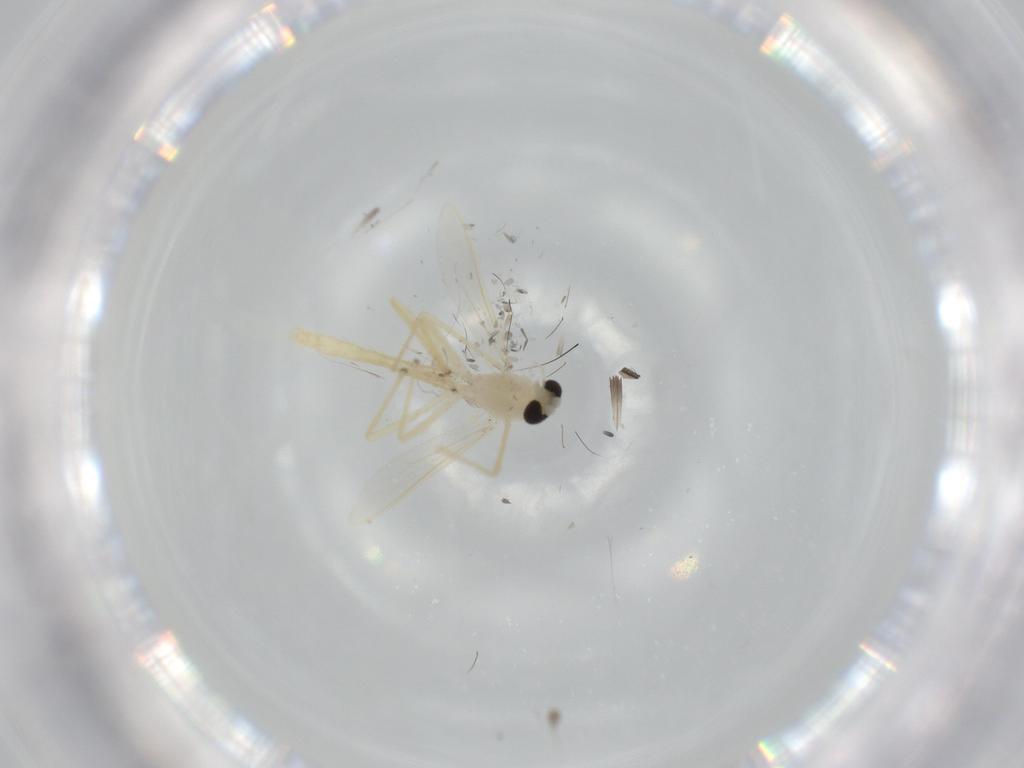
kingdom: Animalia
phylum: Arthropoda
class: Insecta
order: Diptera
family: Chironomidae
